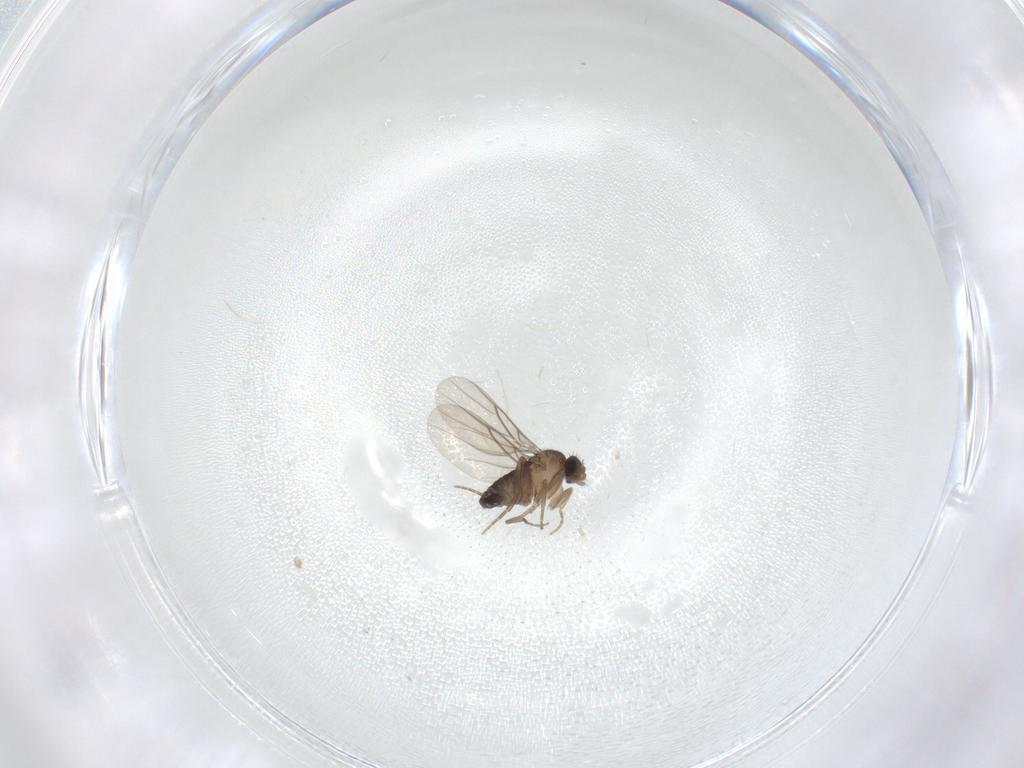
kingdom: Animalia
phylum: Arthropoda
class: Insecta
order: Diptera
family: Phoridae
